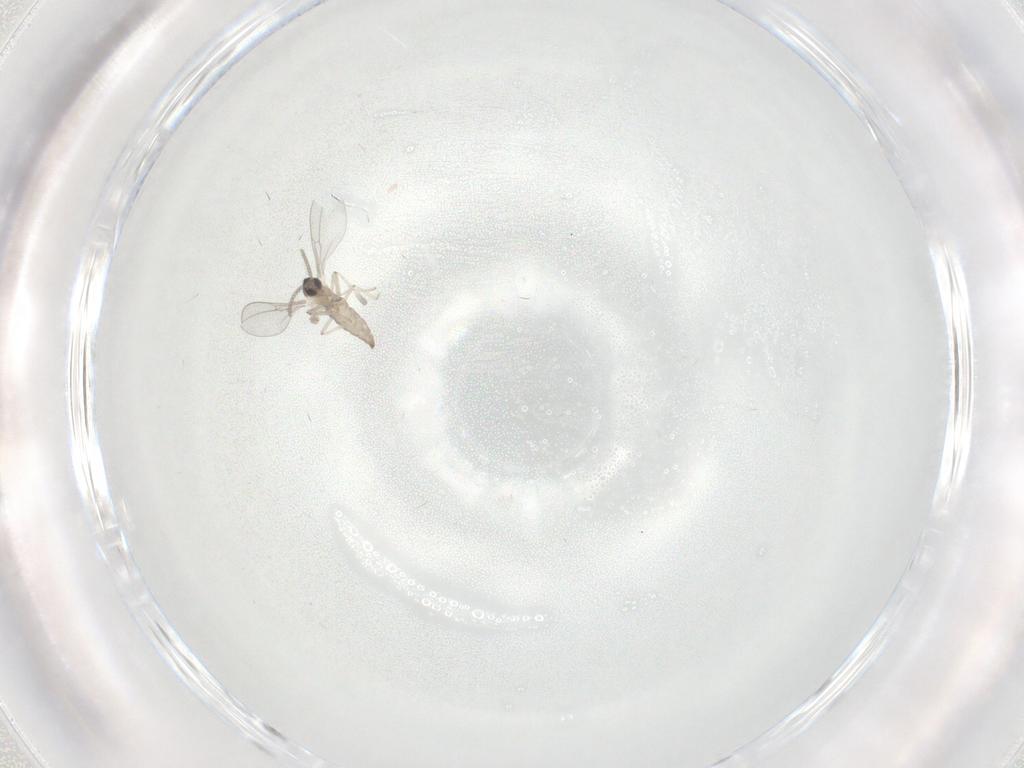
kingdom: Animalia
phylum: Arthropoda
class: Insecta
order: Diptera
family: Cecidomyiidae
